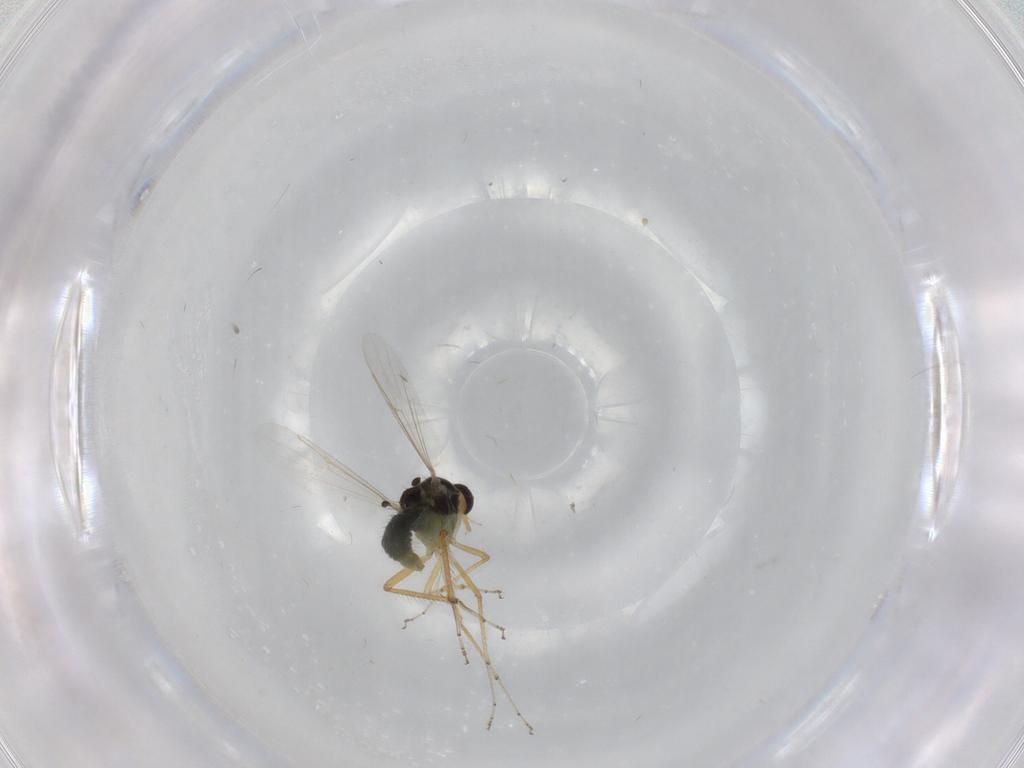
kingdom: Animalia
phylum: Arthropoda
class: Insecta
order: Diptera
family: Ceratopogonidae
